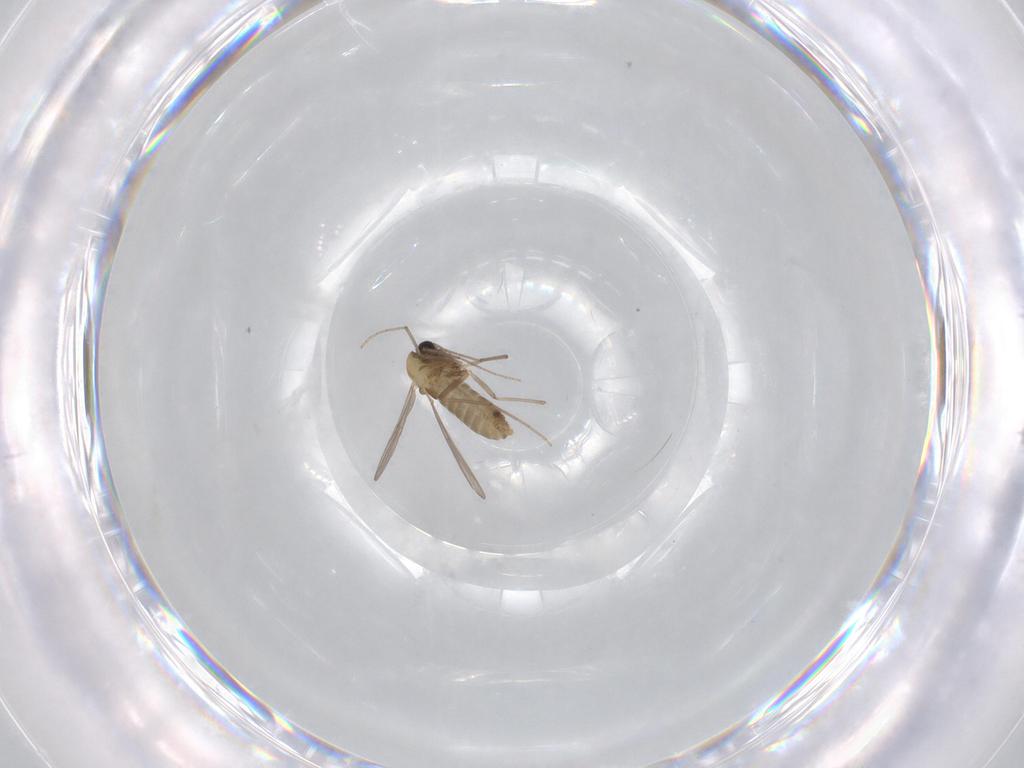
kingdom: Animalia
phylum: Arthropoda
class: Insecta
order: Diptera
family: Chironomidae
